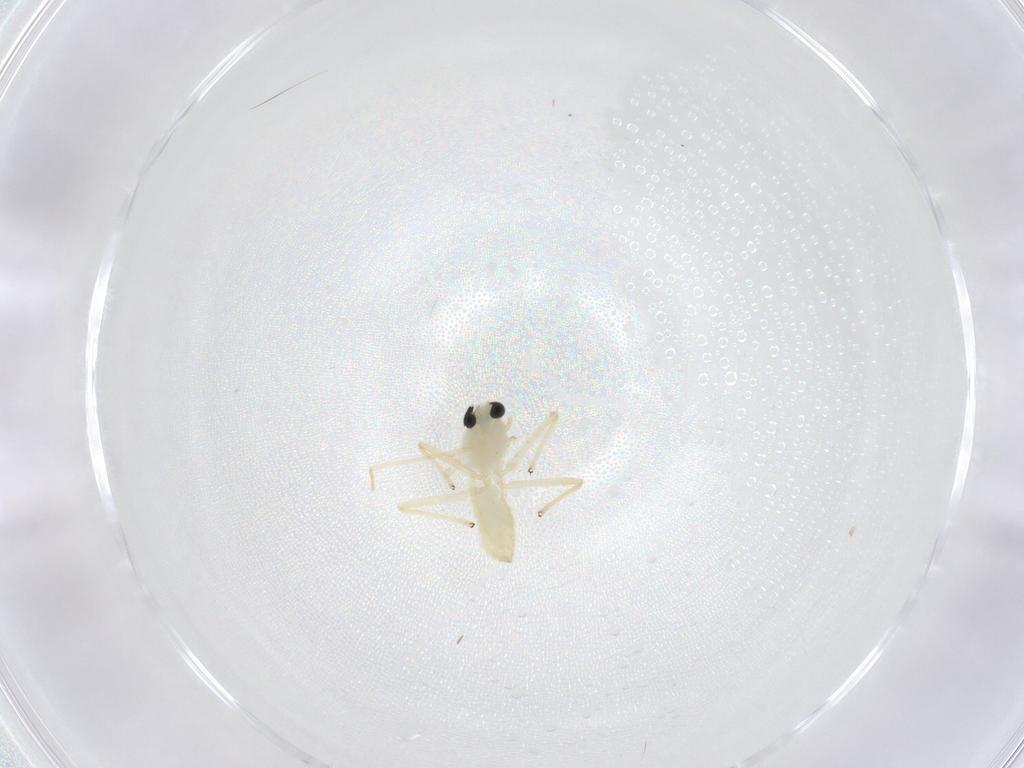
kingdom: Animalia
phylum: Arthropoda
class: Insecta
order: Diptera
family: Chironomidae
